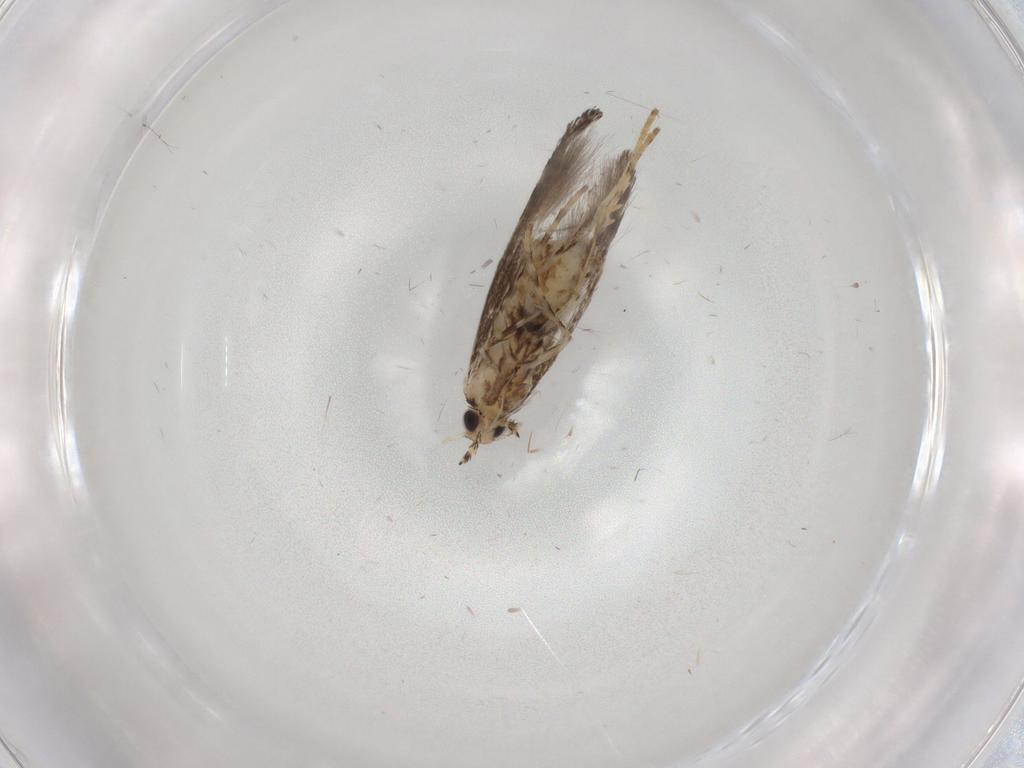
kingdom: Animalia
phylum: Arthropoda
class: Insecta
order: Lepidoptera
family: Gracillariidae
